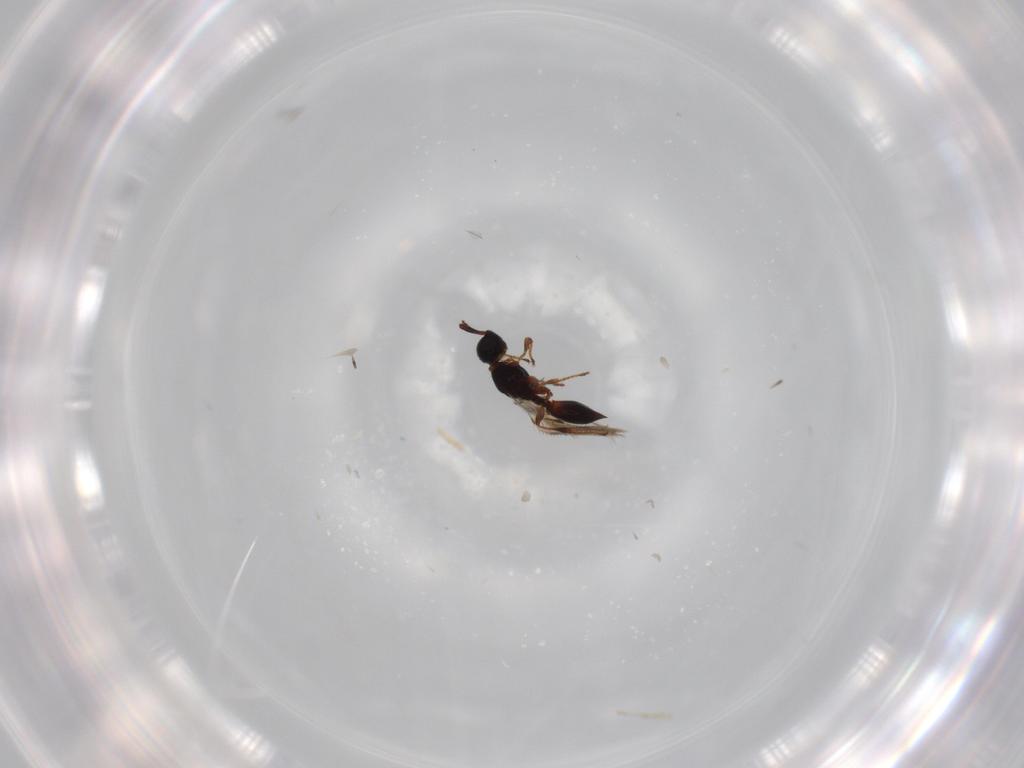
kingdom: Animalia
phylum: Arthropoda
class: Insecta
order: Hymenoptera
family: Diapriidae
